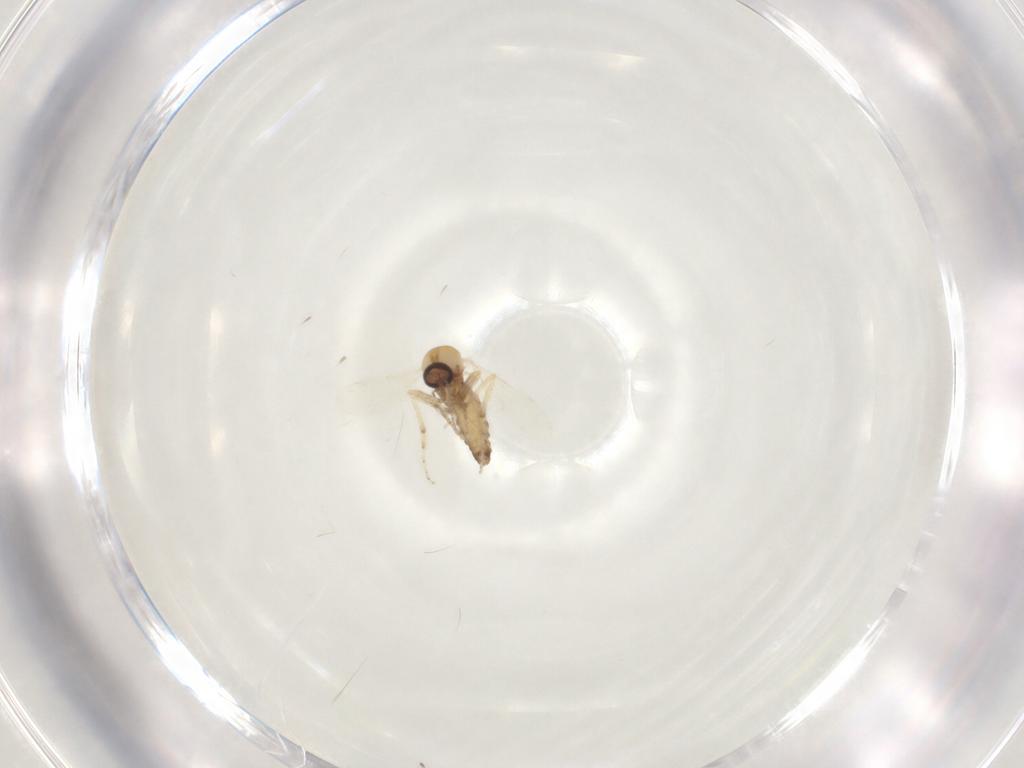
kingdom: Animalia
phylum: Arthropoda
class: Insecta
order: Diptera
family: Ceratopogonidae
